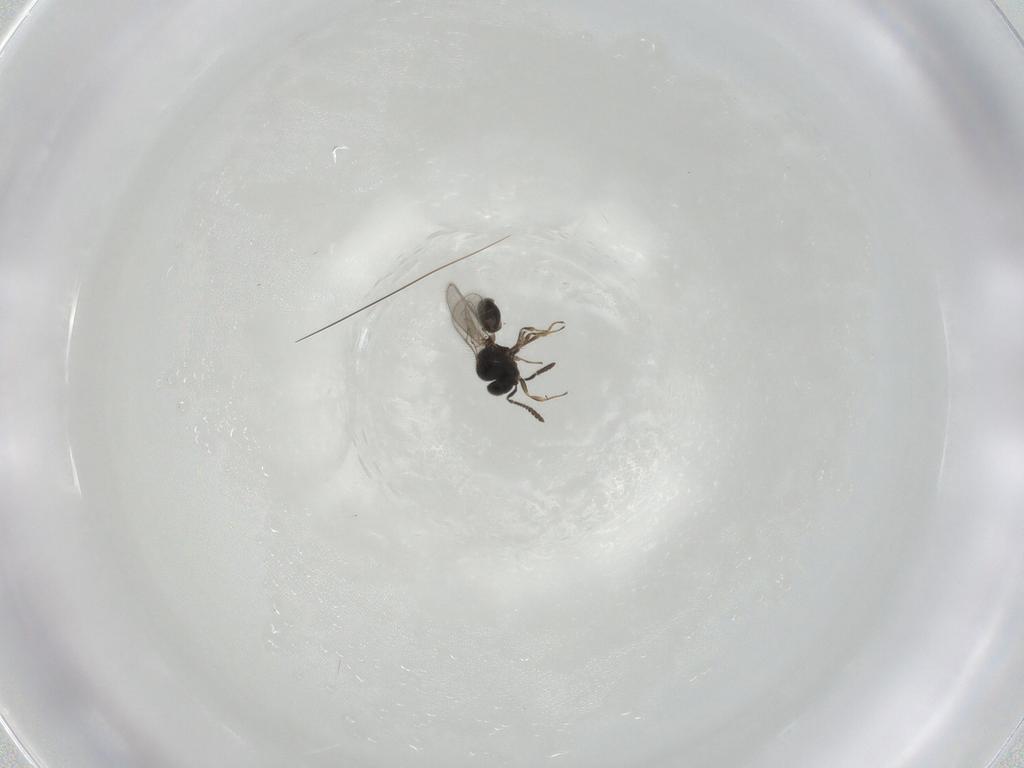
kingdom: Animalia
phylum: Arthropoda
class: Insecta
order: Hymenoptera
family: Scelionidae
